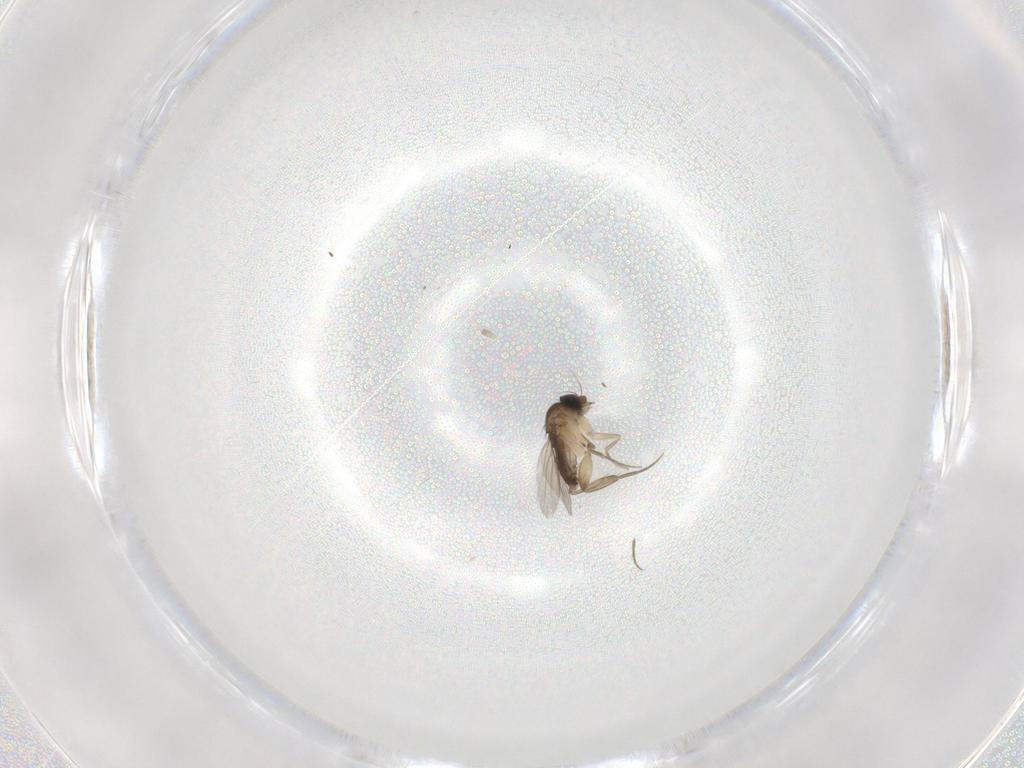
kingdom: Animalia
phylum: Arthropoda
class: Insecta
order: Diptera
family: Phoridae
